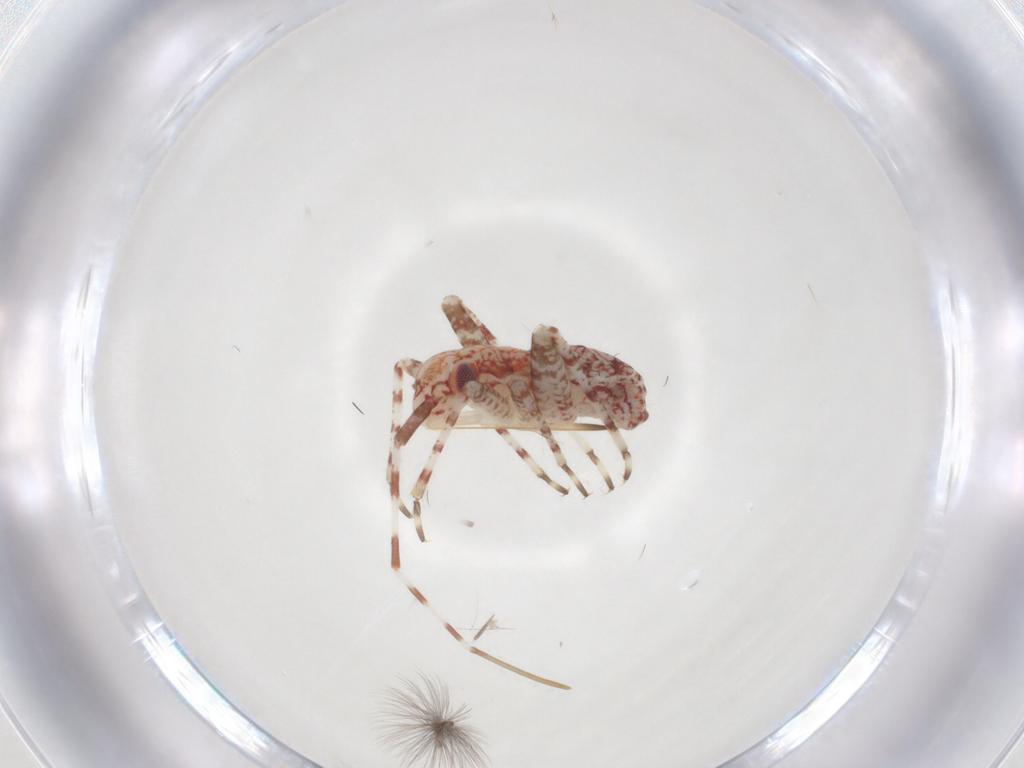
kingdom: Animalia
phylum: Arthropoda
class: Insecta
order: Hemiptera
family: Miridae
